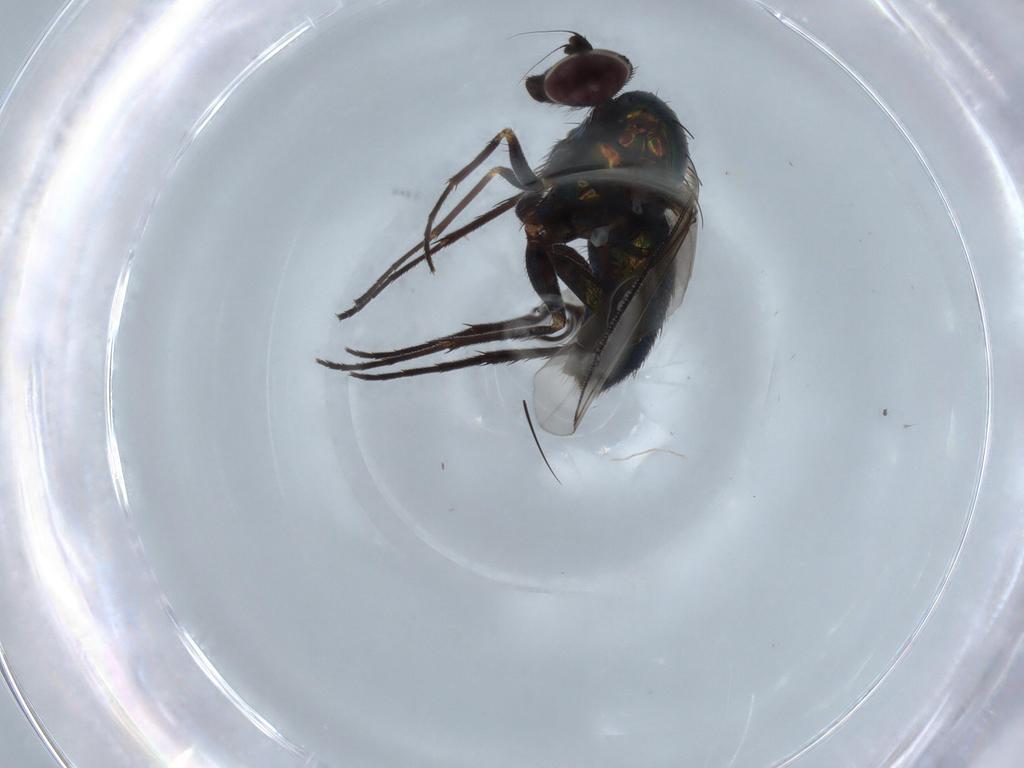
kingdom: Animalia
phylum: Arthropoda
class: Insecta
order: Diptera
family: Dolichopodidae
